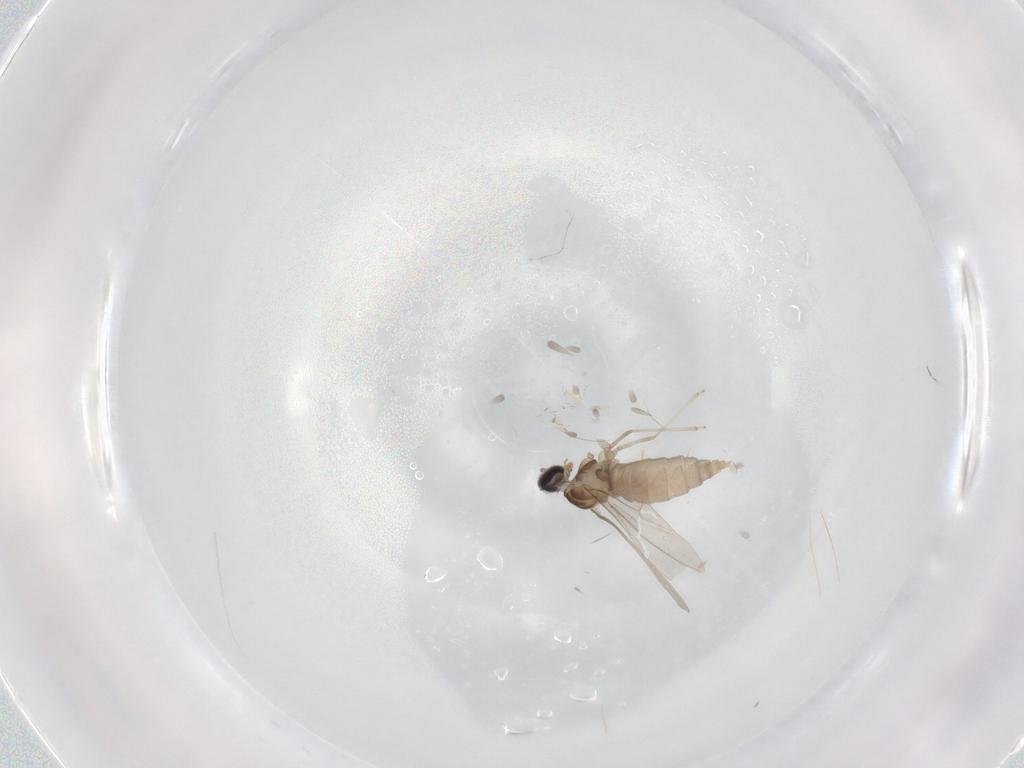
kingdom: Animalia
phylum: Arthropoda
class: Insecta
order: Diptera
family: Cecidomyiidae
